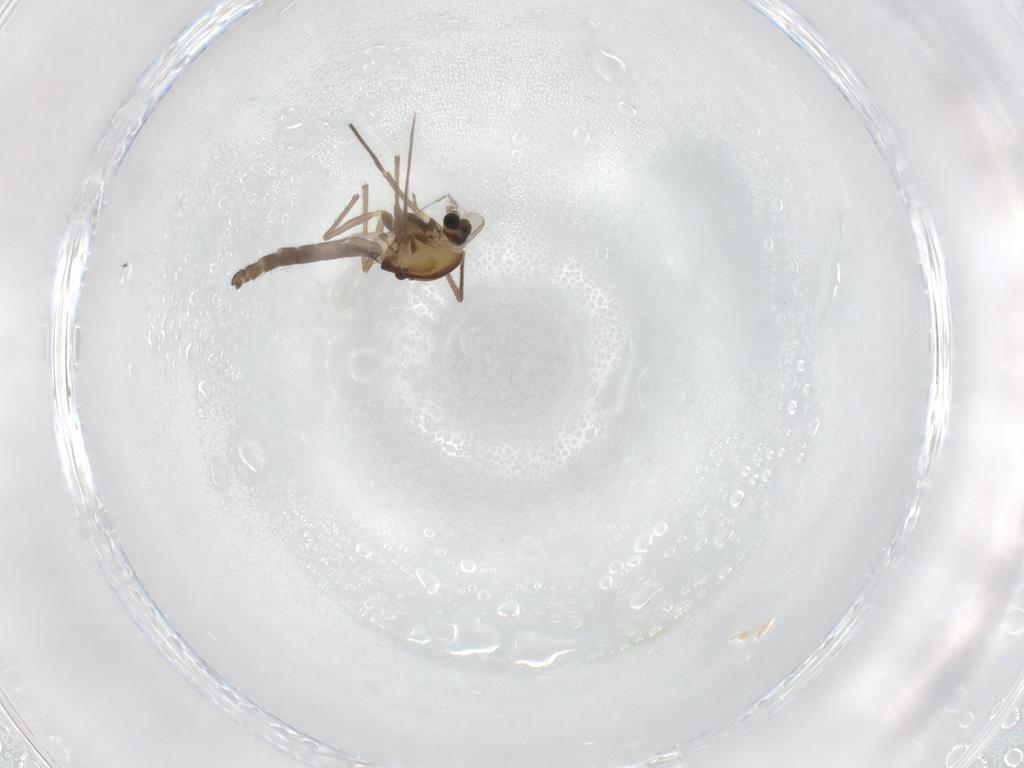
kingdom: Animalia
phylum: Arthropoda
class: Insecta
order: Diptera
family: Chironomidae
